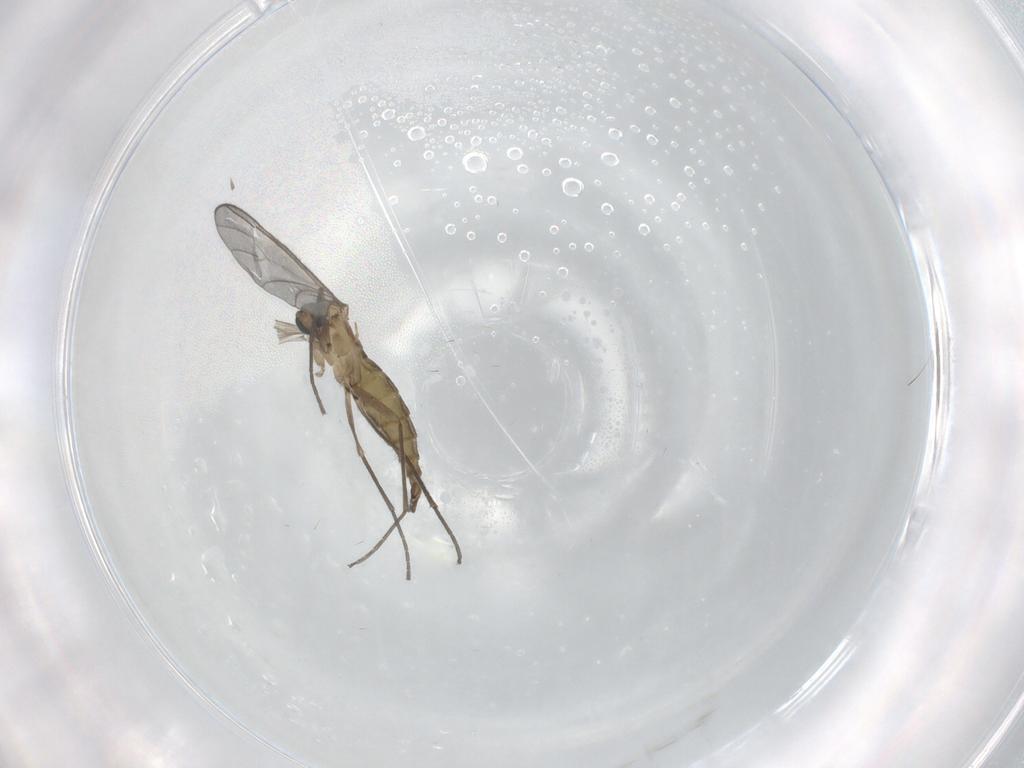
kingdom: Animalia
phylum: Arthropoda
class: Insecta
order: Diptera
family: Sciaridae
